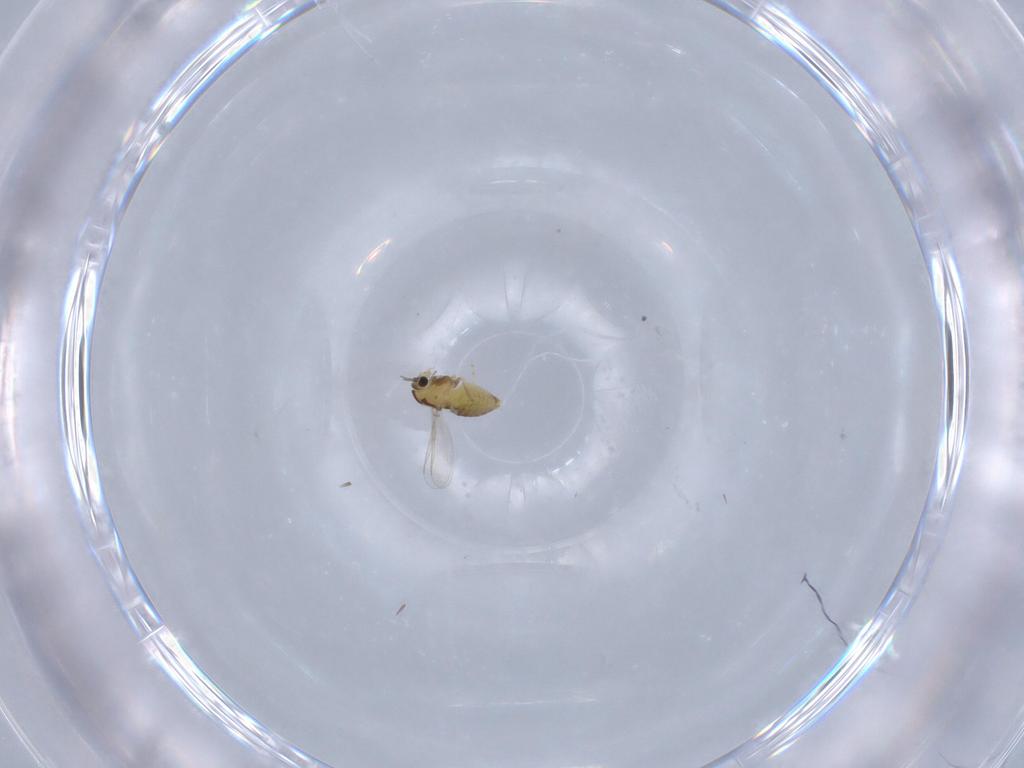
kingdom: Animalia
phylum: Arthropoda
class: Insecta
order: Diptera
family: Chironomidae
